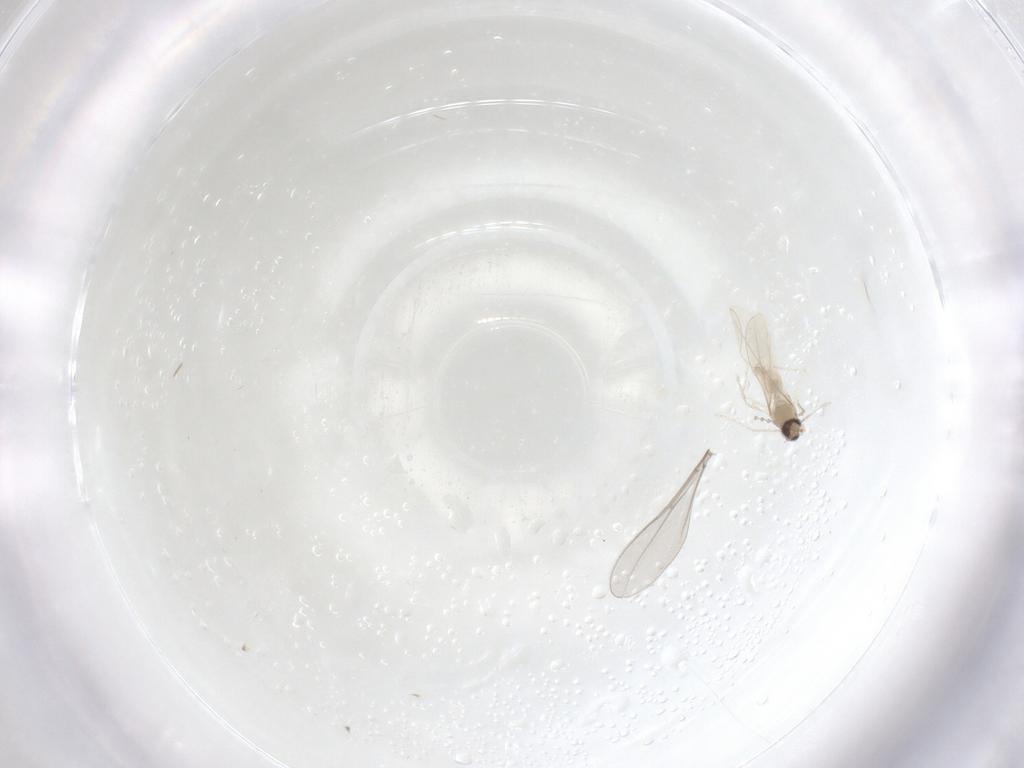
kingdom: Animalia
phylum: Arthropoda
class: Insecta
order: Diptera
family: Cecidomyiidae
